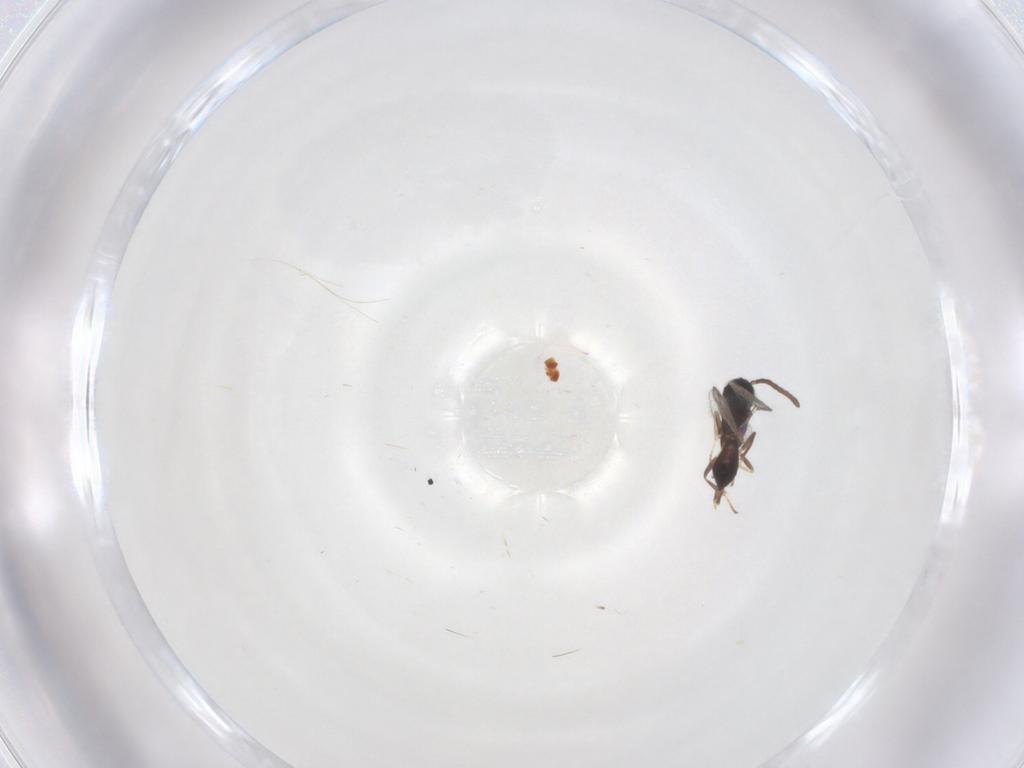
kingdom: Animalia
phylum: Arthropoda
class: Insecta
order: Hymenoptera
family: Eupelmidae
